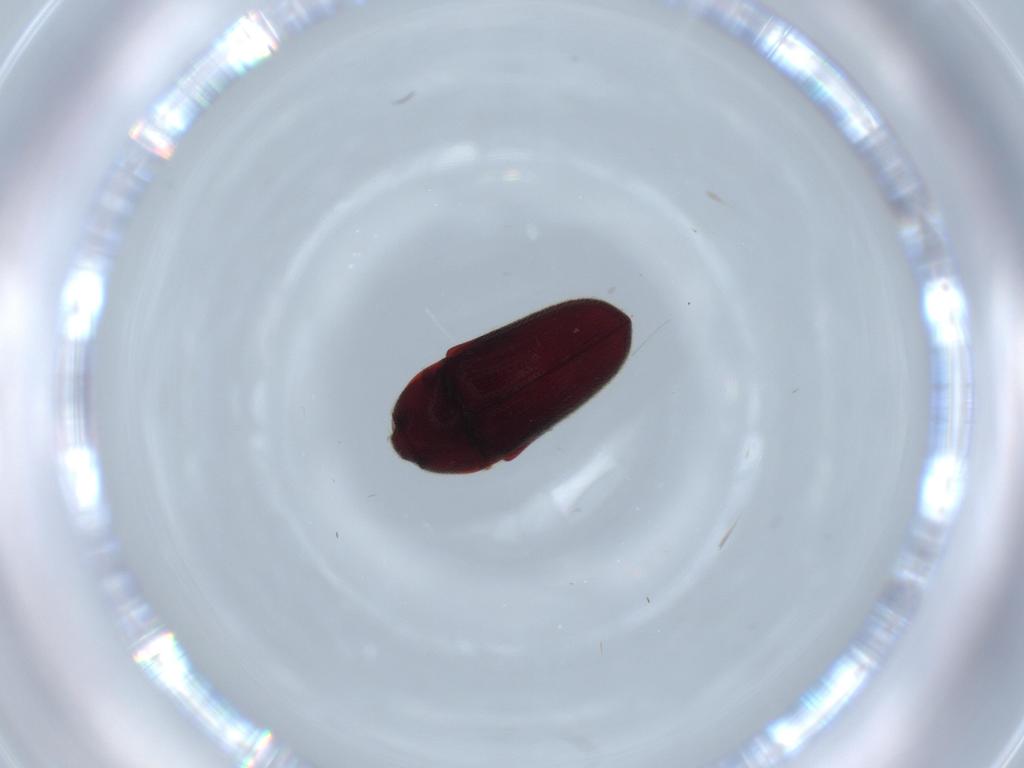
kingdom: Animalia
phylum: Arthropoda
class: Insecta
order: Coleoptera
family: Throscidae
